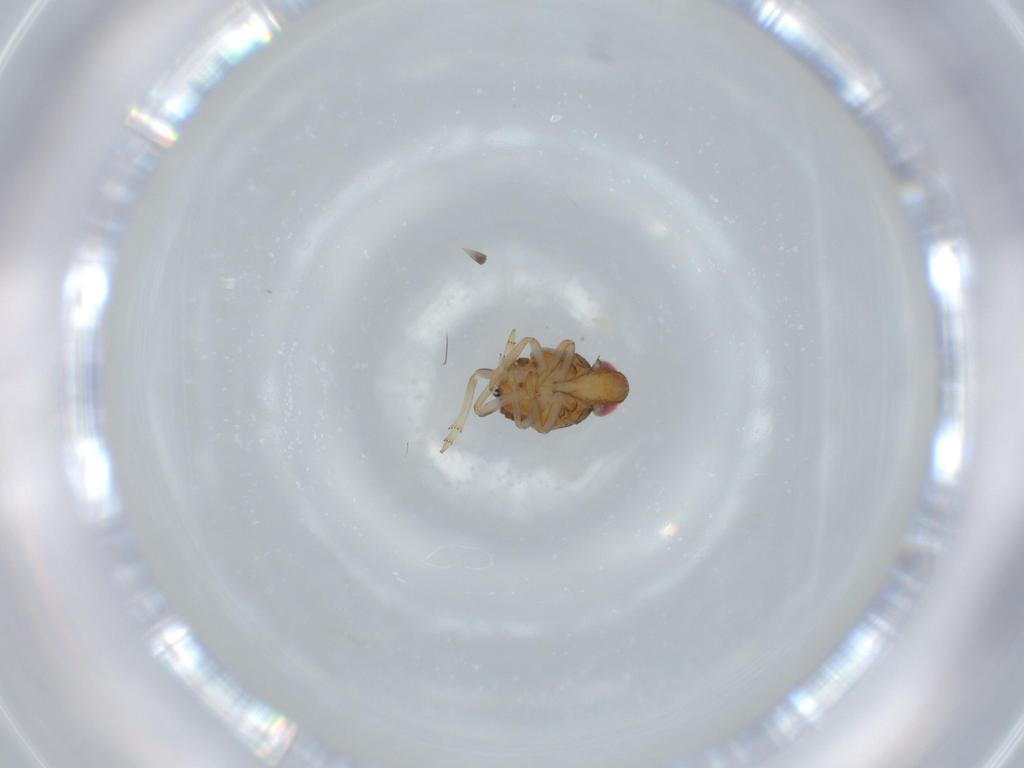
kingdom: Animalia
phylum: Arthropoda
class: Insecta
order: Hemiptera
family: Issidae
